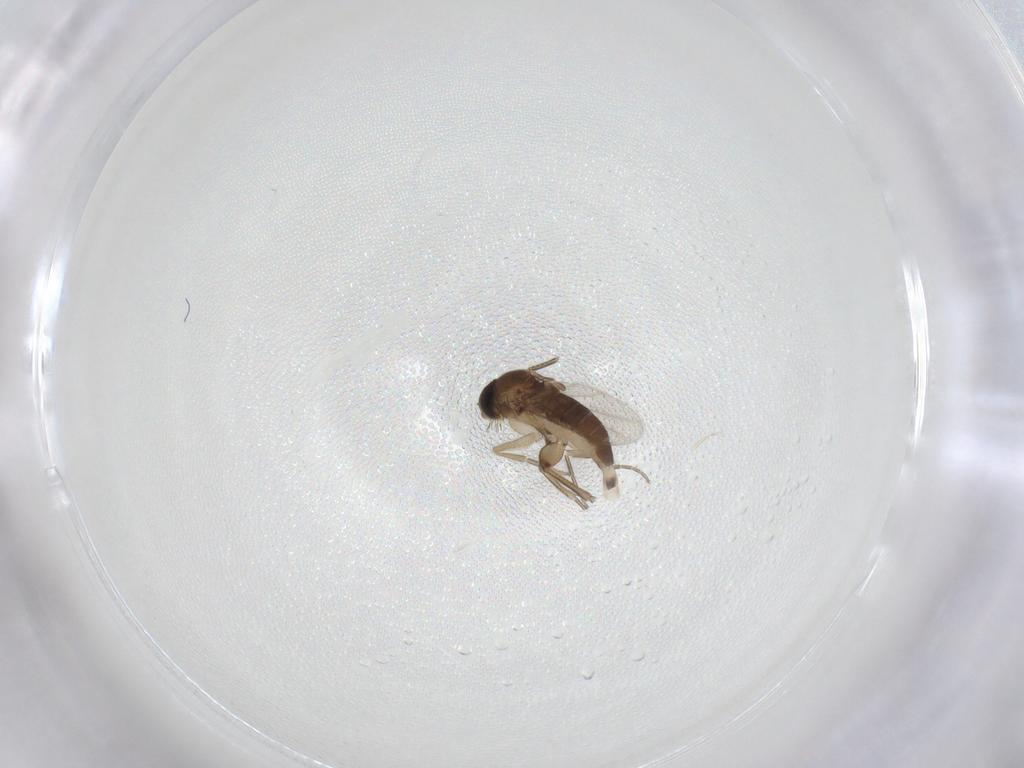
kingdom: Animalia
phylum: Arthropoda
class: Insecta
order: Diptera
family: Phoridae
